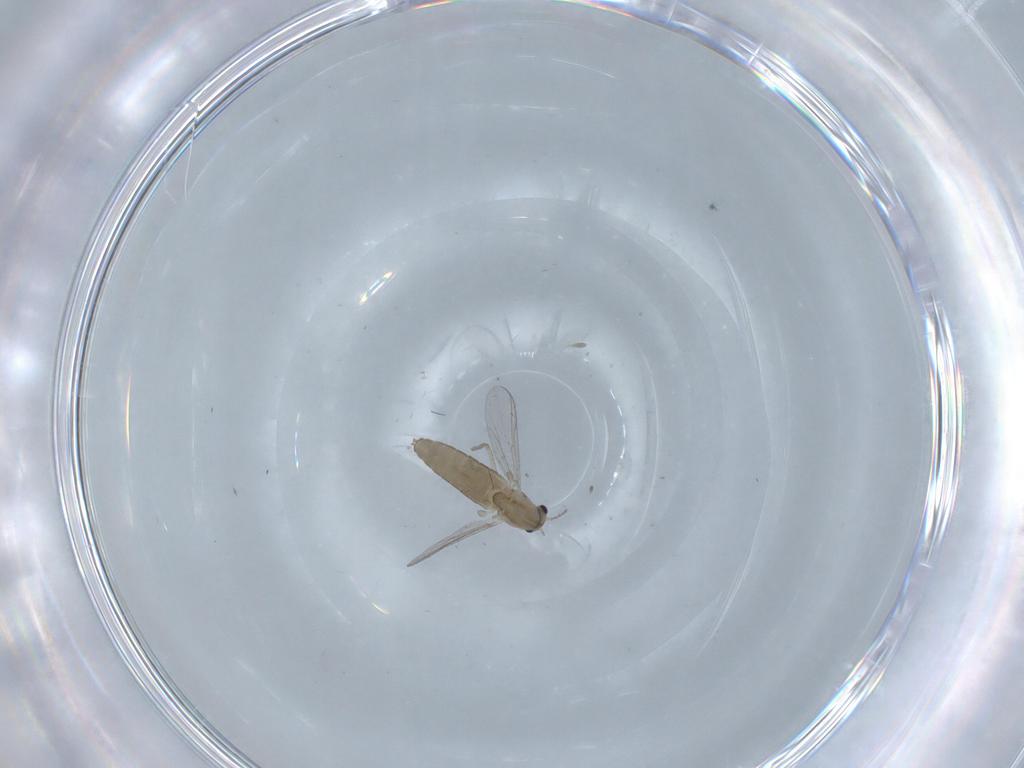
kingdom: Animalia
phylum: Arthropoda
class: Insecta
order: Diptera
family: Chironomidae
